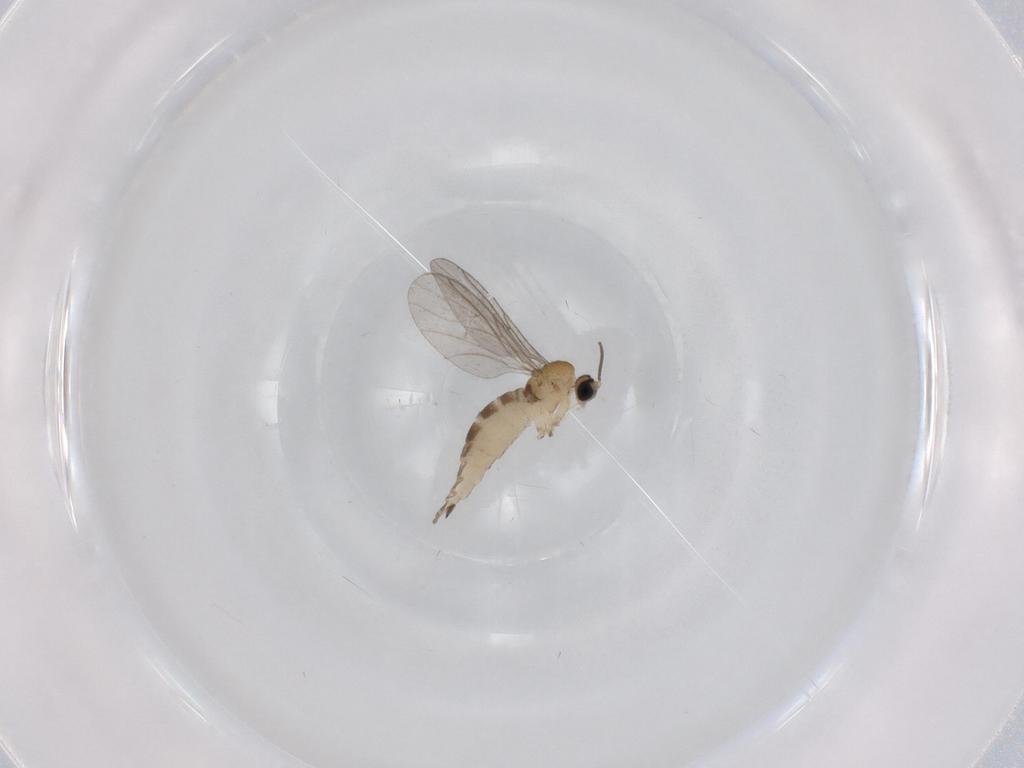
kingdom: Animalia
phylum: Arthropoda
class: Insecta
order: Diptera
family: Sciaridae
